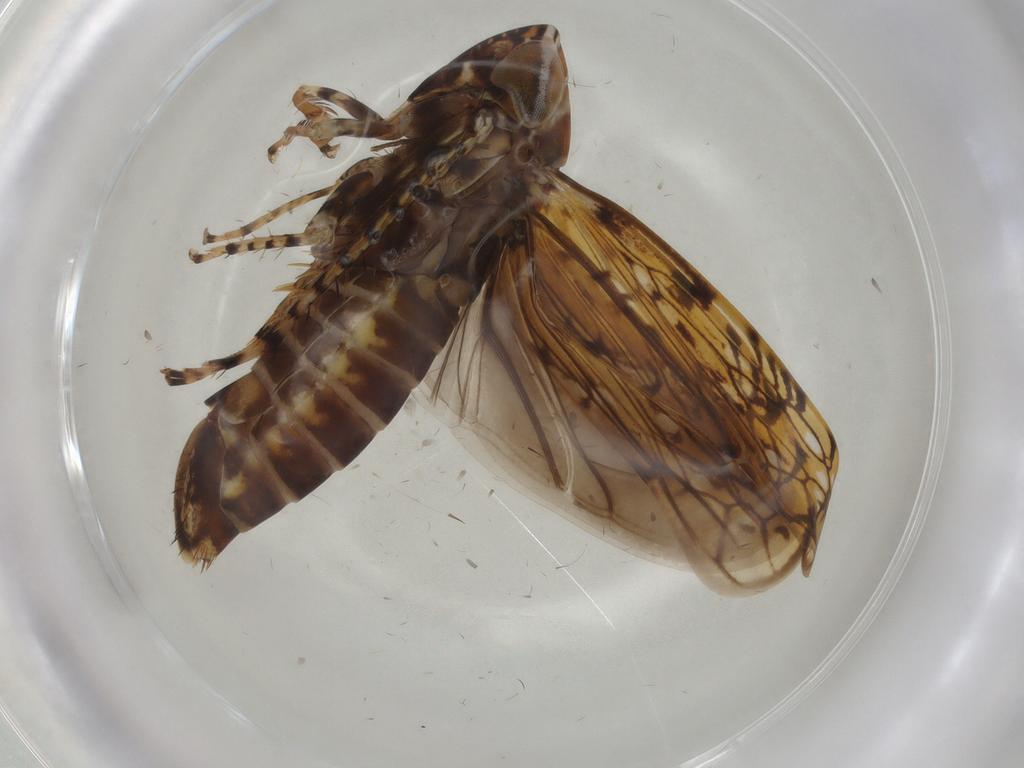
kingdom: Animalia
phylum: Arthropoda
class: Insecta
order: Hemiptera
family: Cicadellidae
